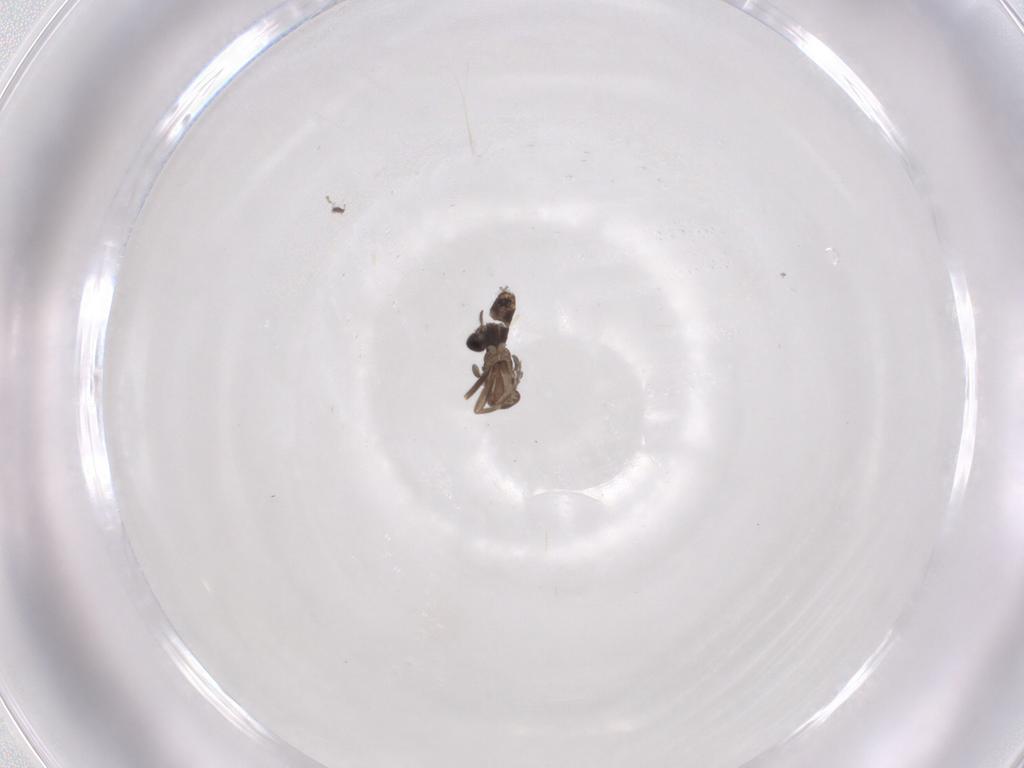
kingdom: Animalia
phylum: Arthropoda
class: Insecta
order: Diptera
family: Phoridae
